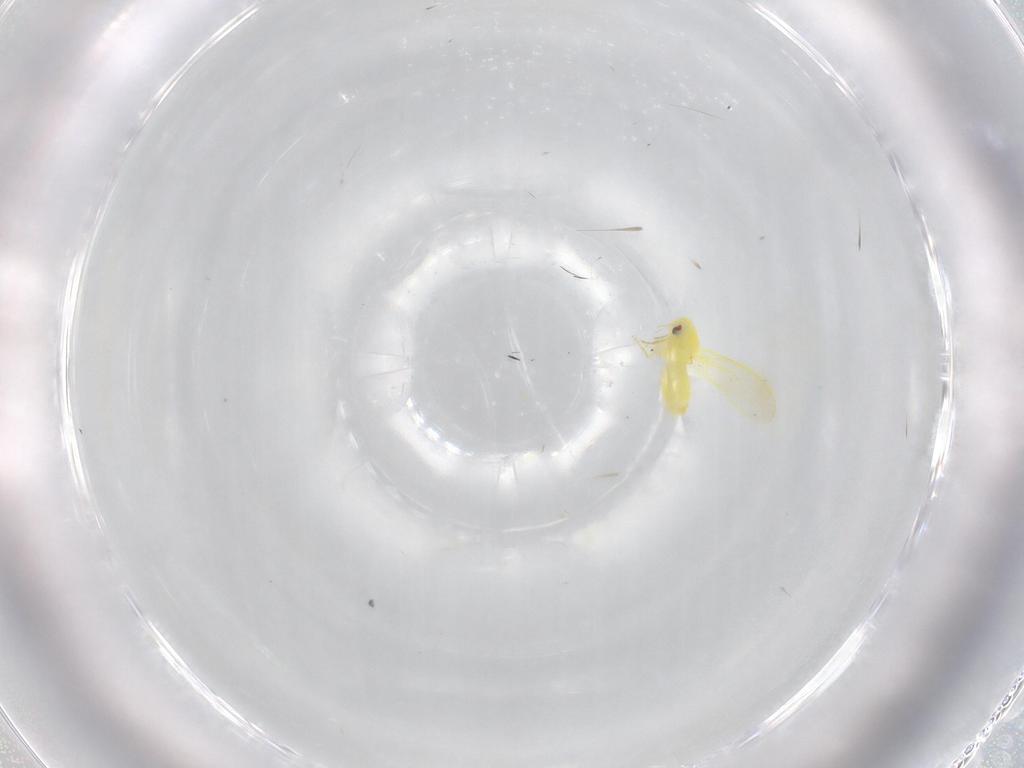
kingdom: Animalia
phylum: Arthropoda
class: Insecta
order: Hemiptera
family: Aleyrodidae
